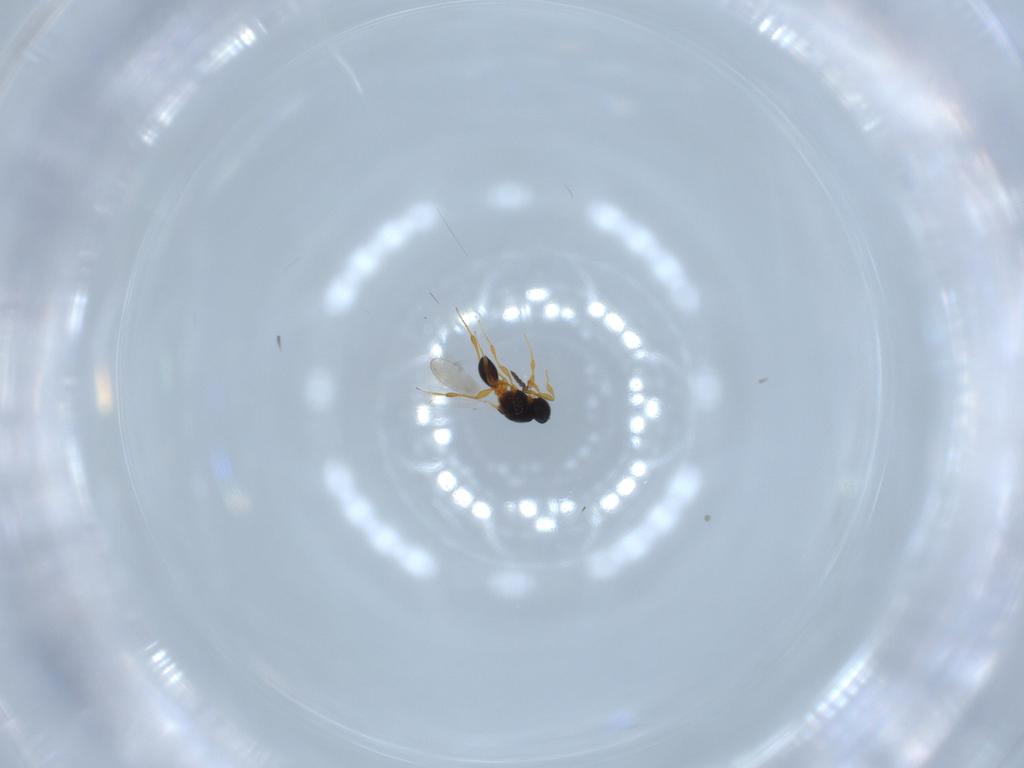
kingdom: Animalia
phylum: Arthropoda
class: Insecta
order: Hymenoptera
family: Platygastridae
